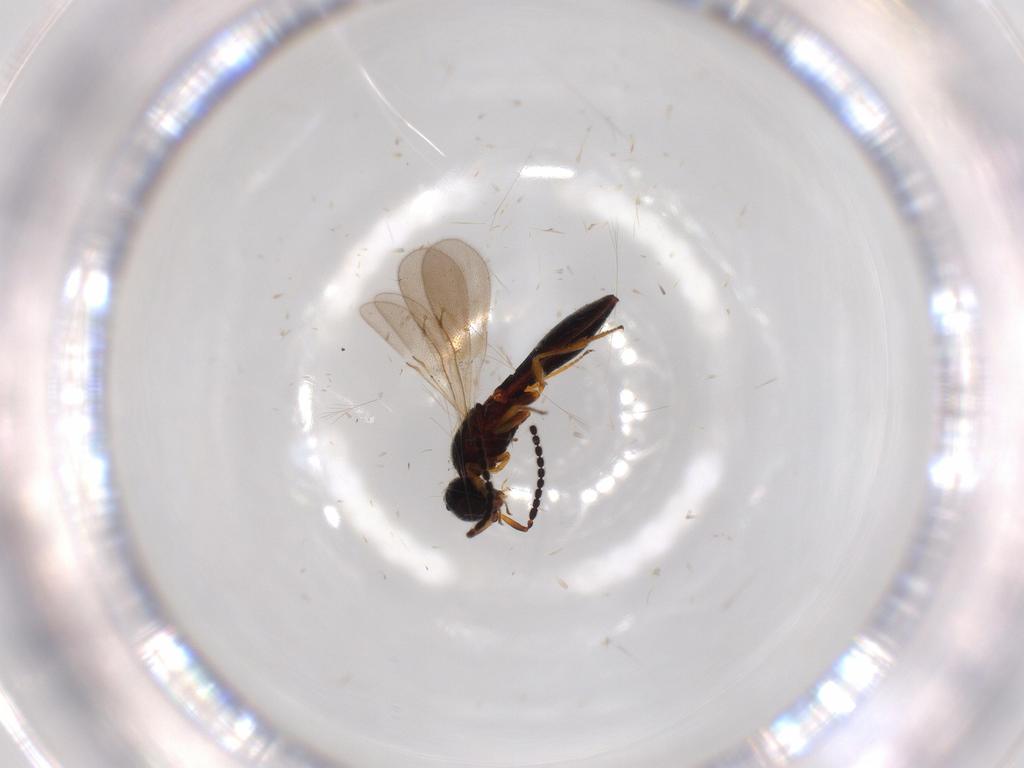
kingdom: Animalia
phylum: Arthropoda
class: Insecta
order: Hymenoptera
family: Scelionidae
